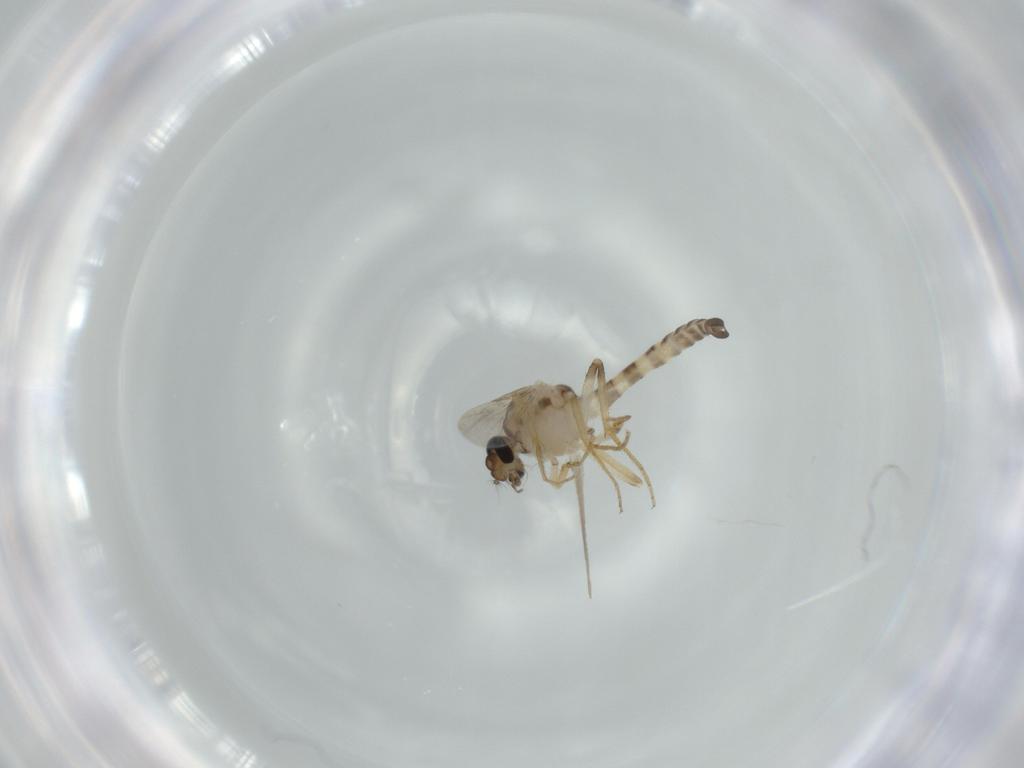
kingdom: Animalia
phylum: Arthropoda
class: Insecta
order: Diptera
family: Ceratopogonidae
